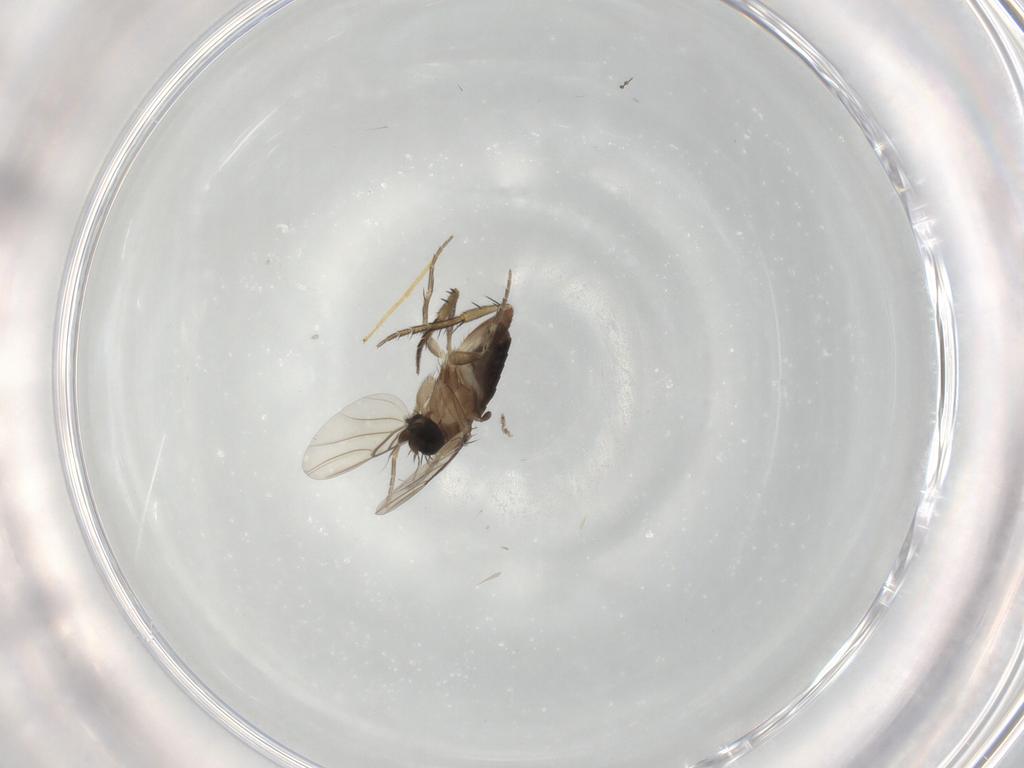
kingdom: Animalia
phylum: Arthropoda
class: Insecta
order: Diptera
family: Phoridae
